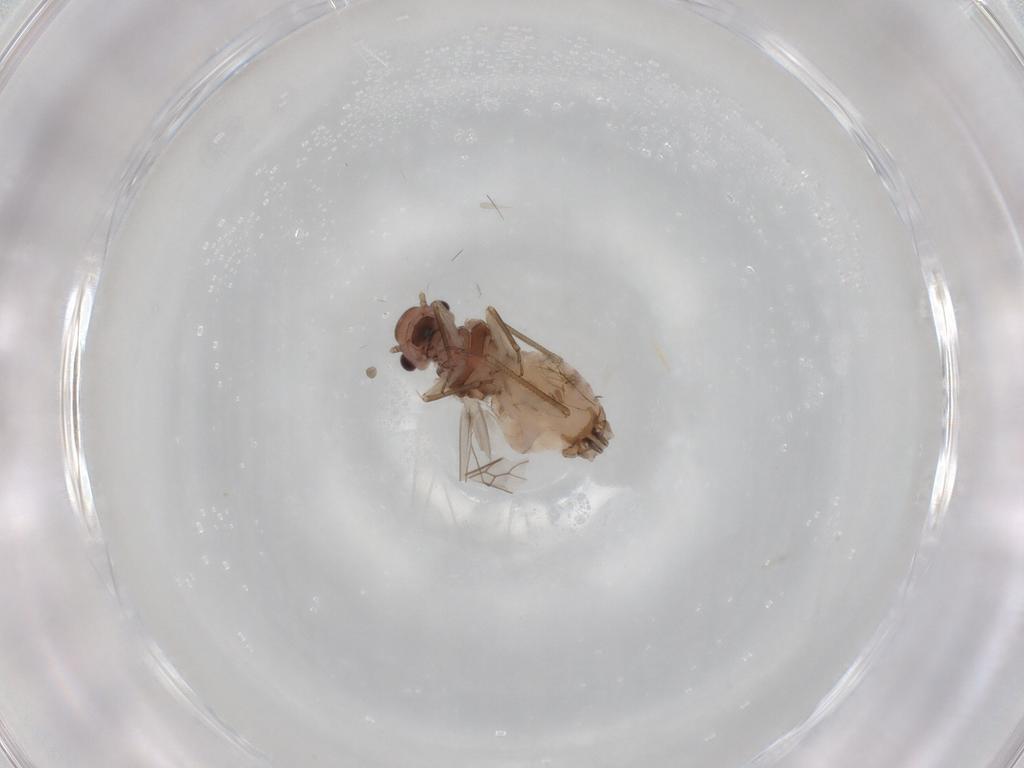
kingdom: Animalia
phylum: Arthropoda
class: Insecta
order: Psocodea
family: Peripsocidae
